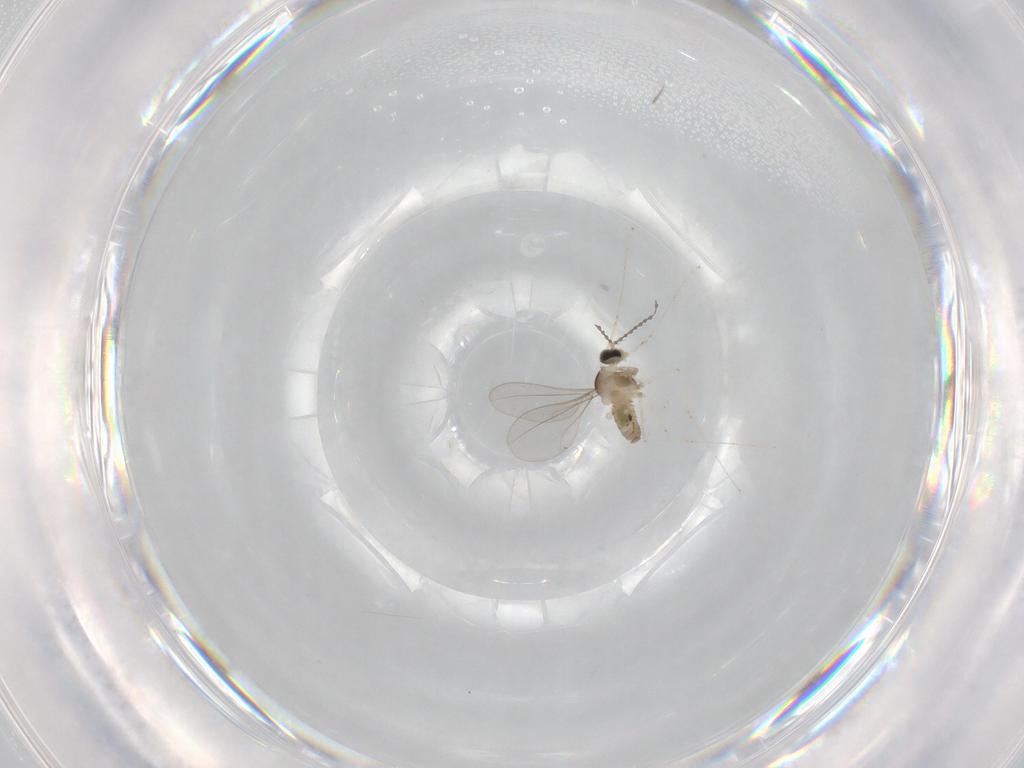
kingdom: Animalia
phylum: Arthropoda
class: Insecta
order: Diptera
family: Cecidomyiidae
